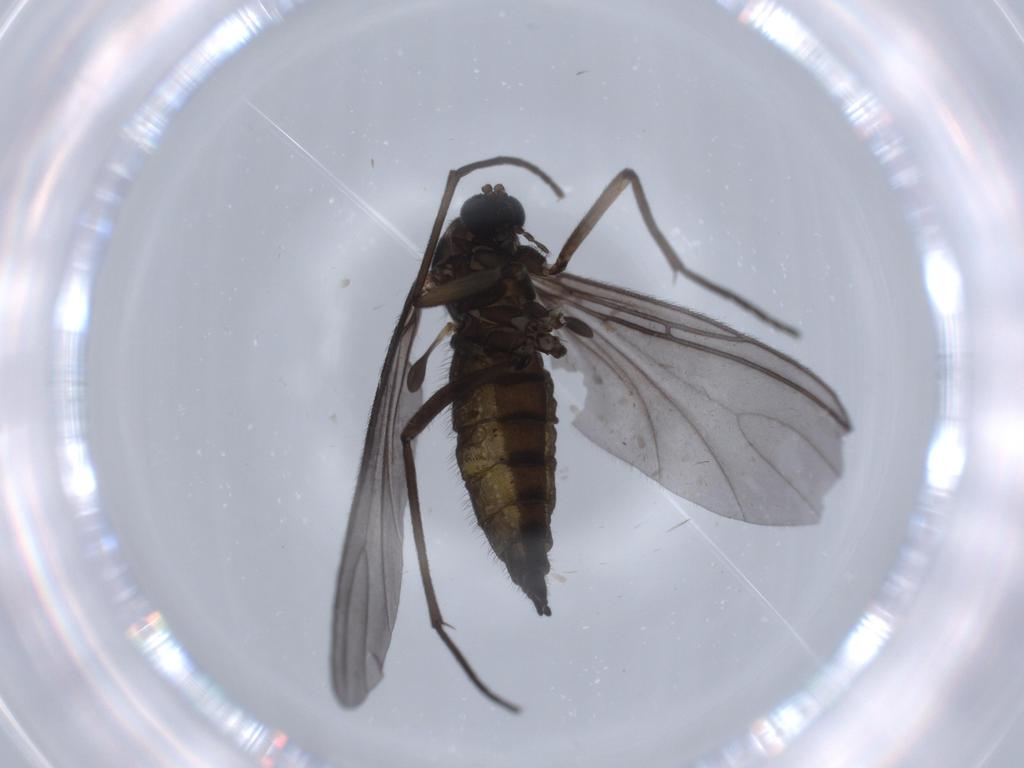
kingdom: Animalia
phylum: Arthropoda
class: Insecta
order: Diptera
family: Sciaridae
